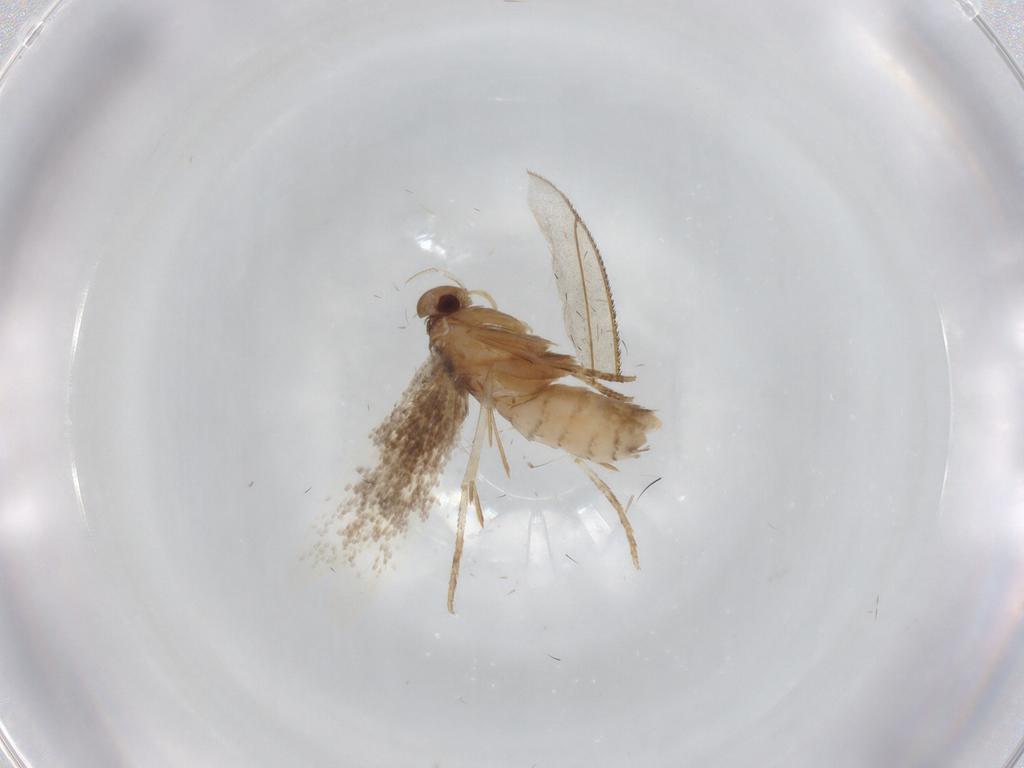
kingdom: Animalia
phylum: Arthropoda
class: Insecta
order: Lepidoptera
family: Elachistidae
